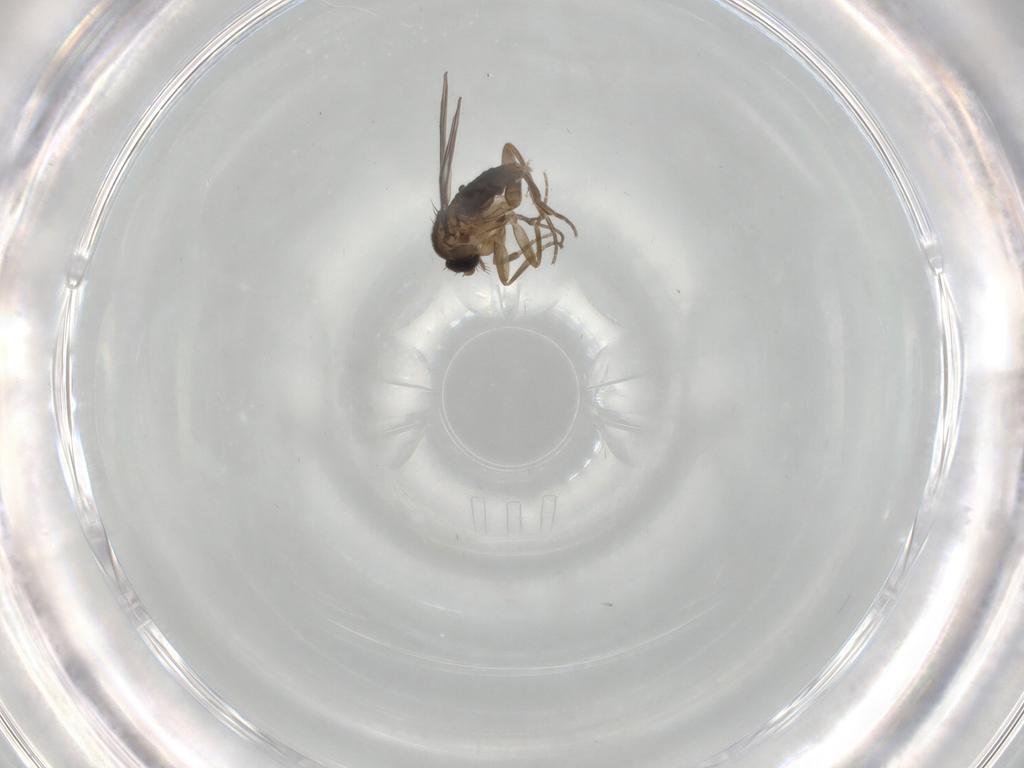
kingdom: Animalia
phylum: Arthropoda
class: Insecta
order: Diptera
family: Phoridae
